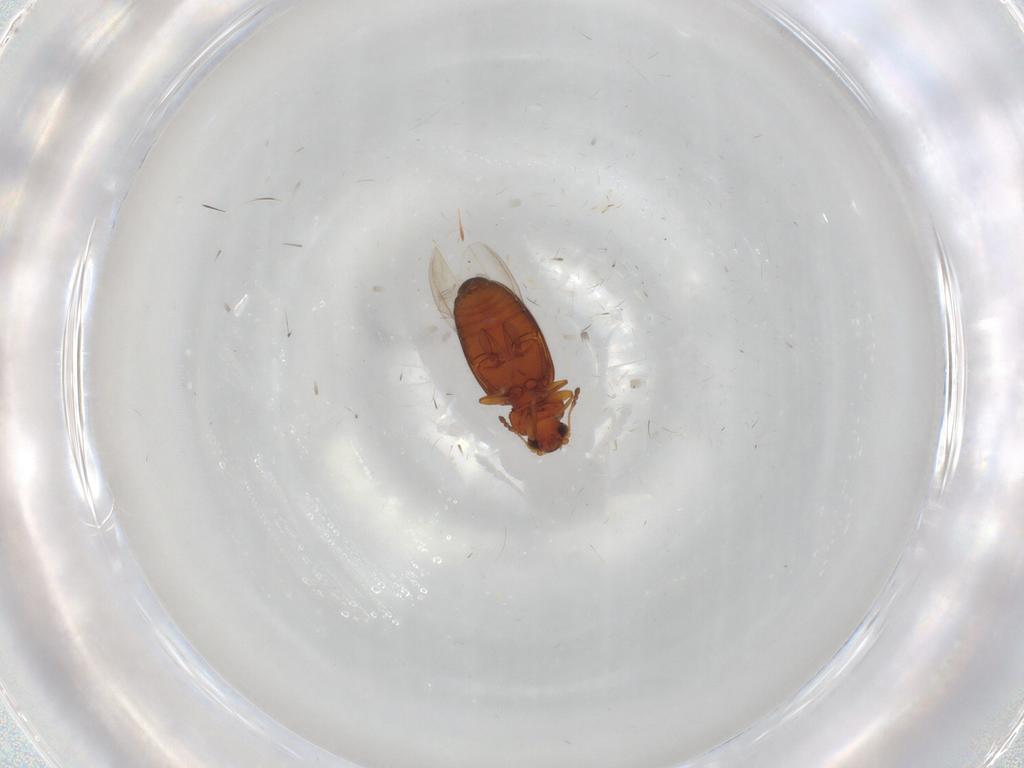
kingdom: Animalia
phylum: Arthropoda
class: Insecta
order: Coleoptera
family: Latridiidae
